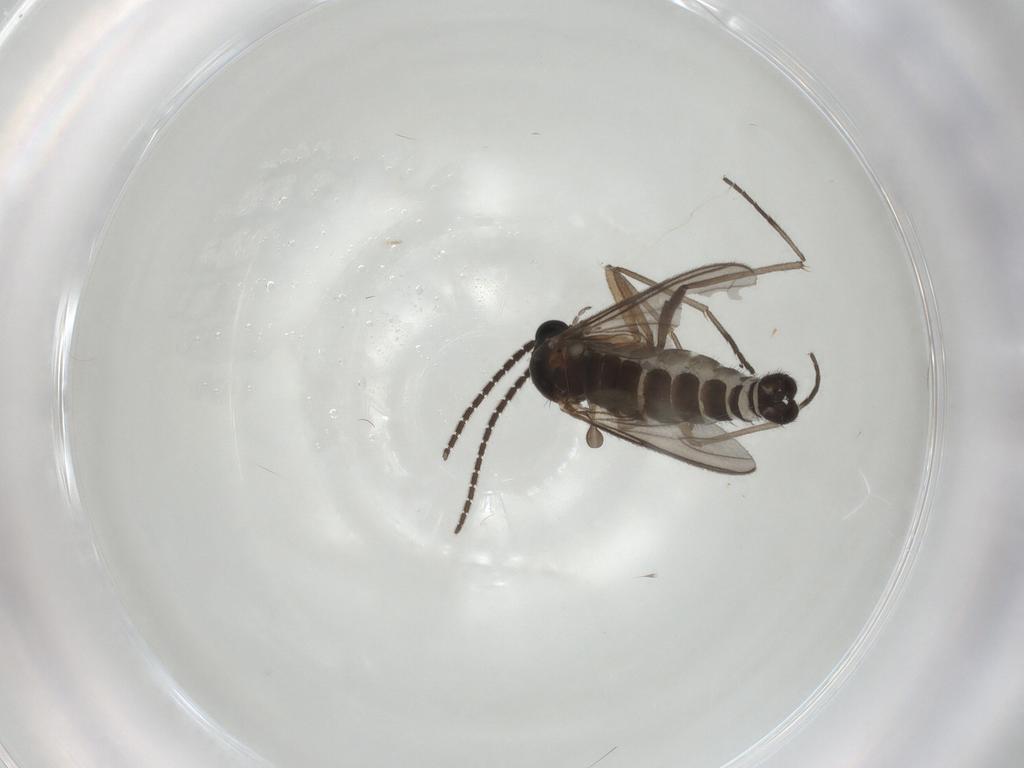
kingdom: Animalia
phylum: Arthropoda
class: Insecta
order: Diptera
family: Sciaridae
